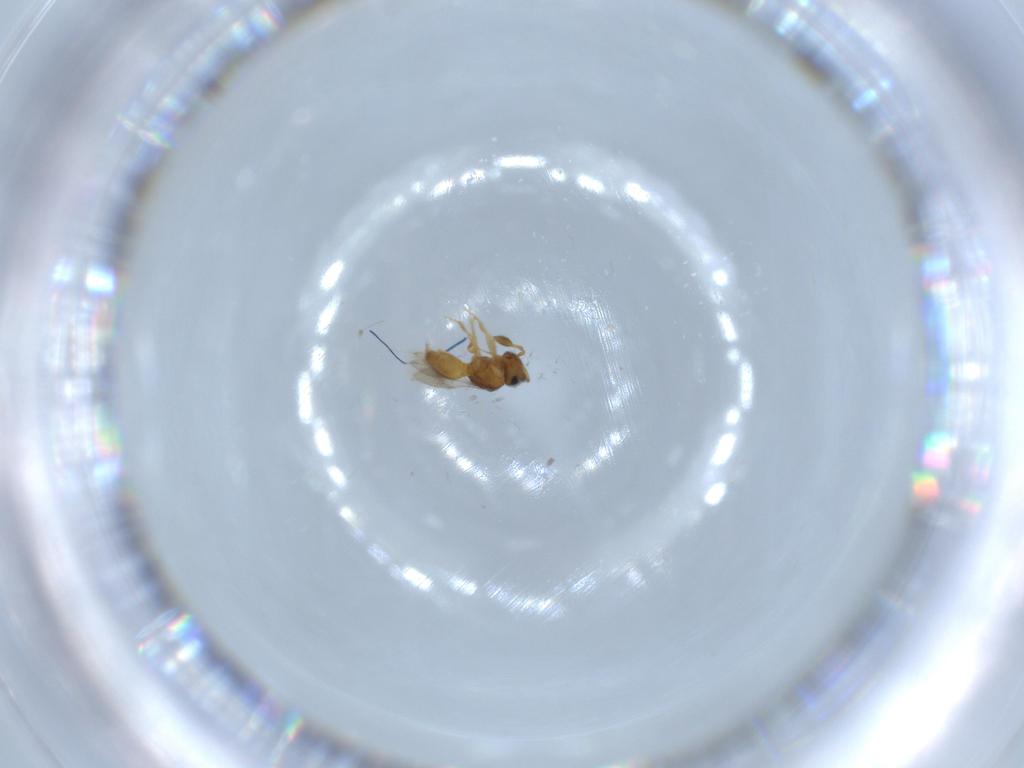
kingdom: Animalia
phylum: Arthropoda
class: Insecta
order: Hymenoptera
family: Scelionidae
